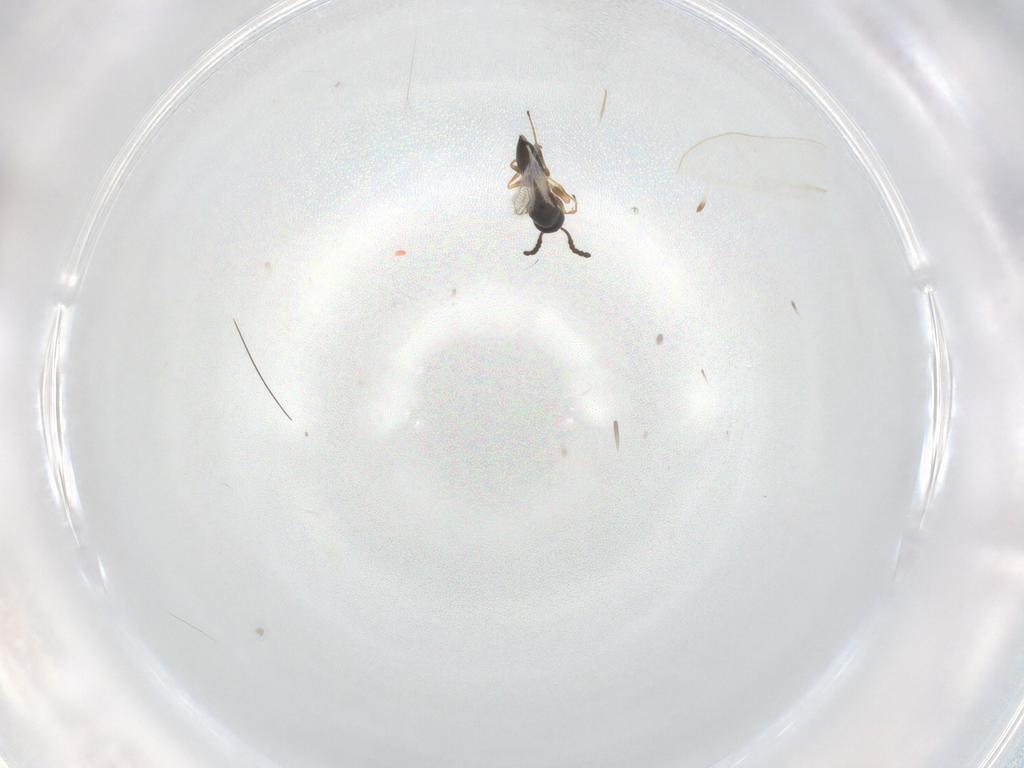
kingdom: Animalia
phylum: Arthropoda
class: Insecta
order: Hymenoptera
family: Figitidae
